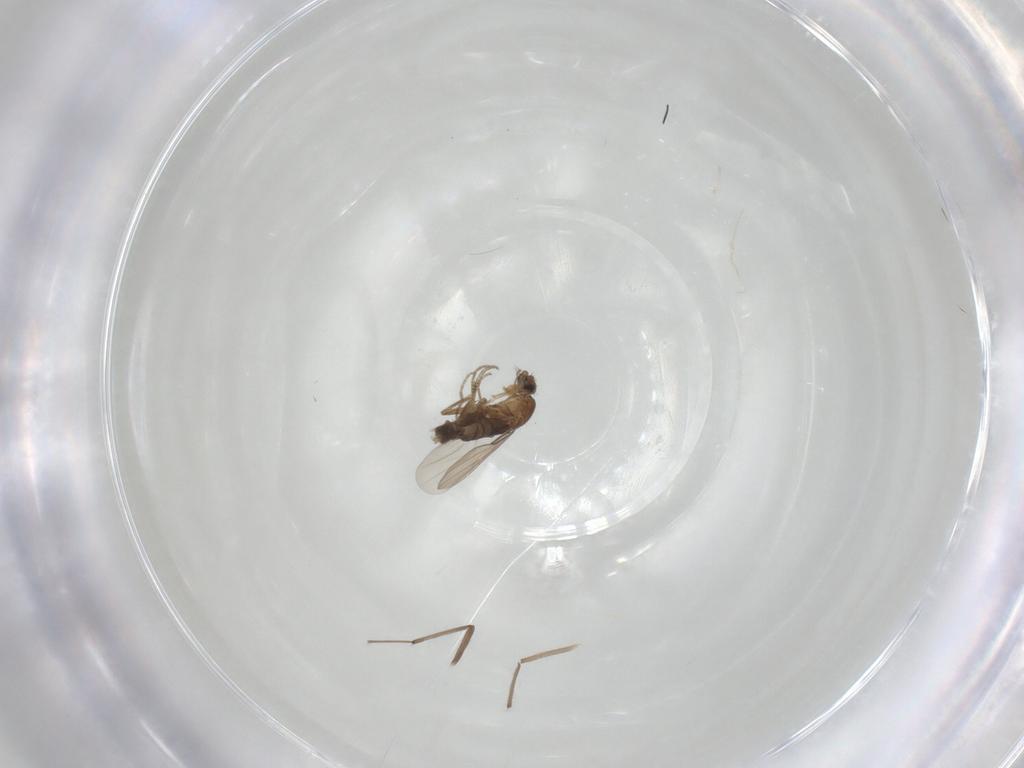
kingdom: Animalia
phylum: Arthropoda
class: Insecta
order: Diptera
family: Phoridae
